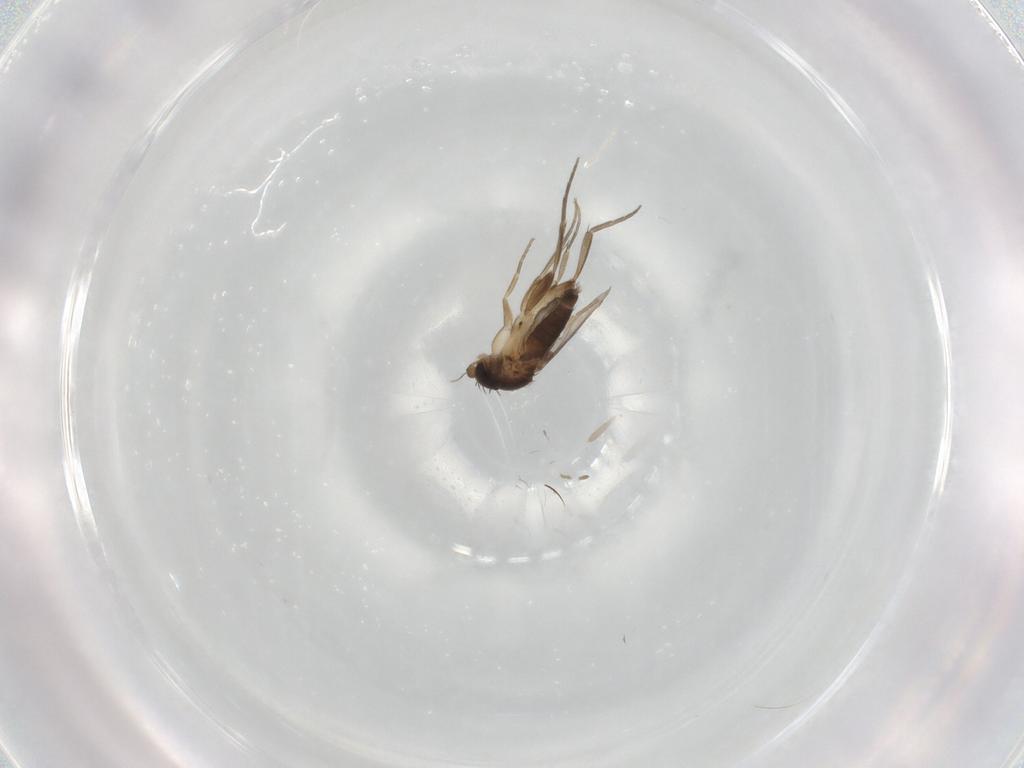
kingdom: Animalia
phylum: Arthropoda
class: Insecta
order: Diptera
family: Phoridae
